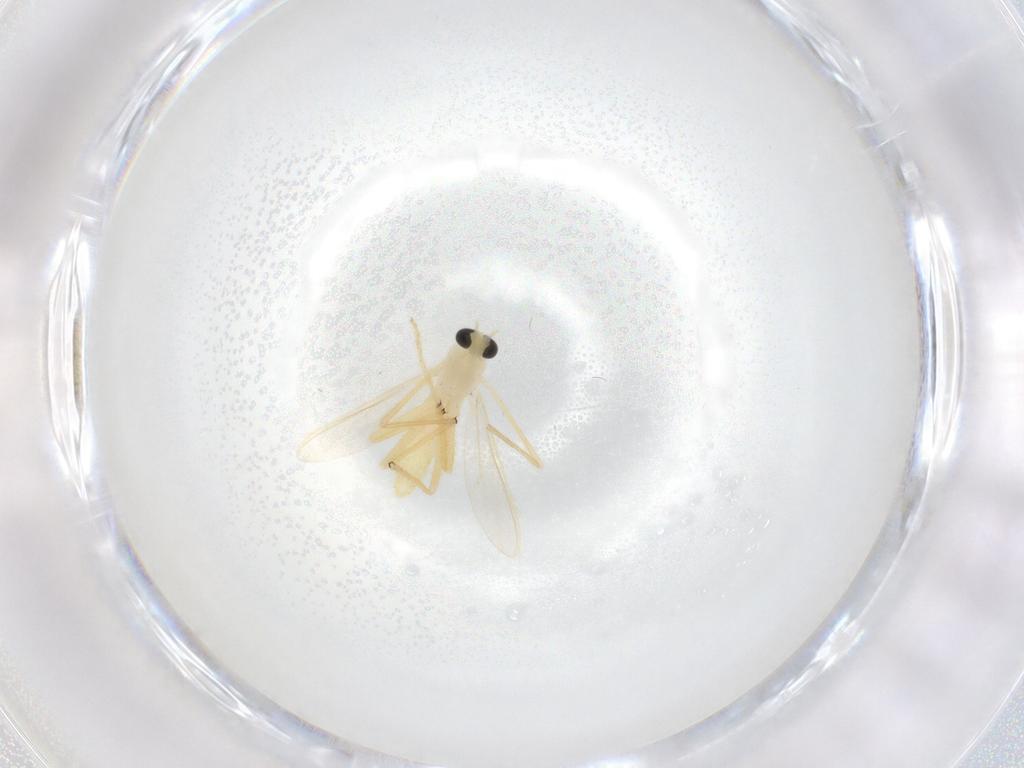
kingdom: Animalia
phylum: Arthropoda
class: Insecta
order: Diptera
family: Chironomidae
